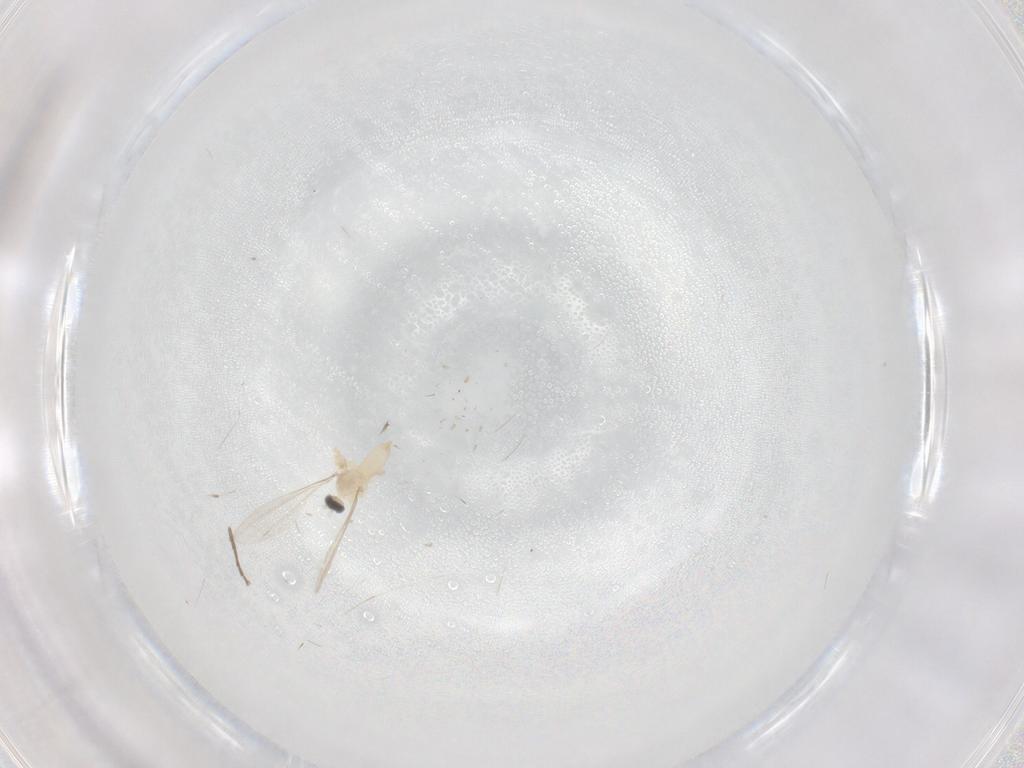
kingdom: Animalia
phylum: Arthropoda
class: Insecta
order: Diptera
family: Chironomidae
